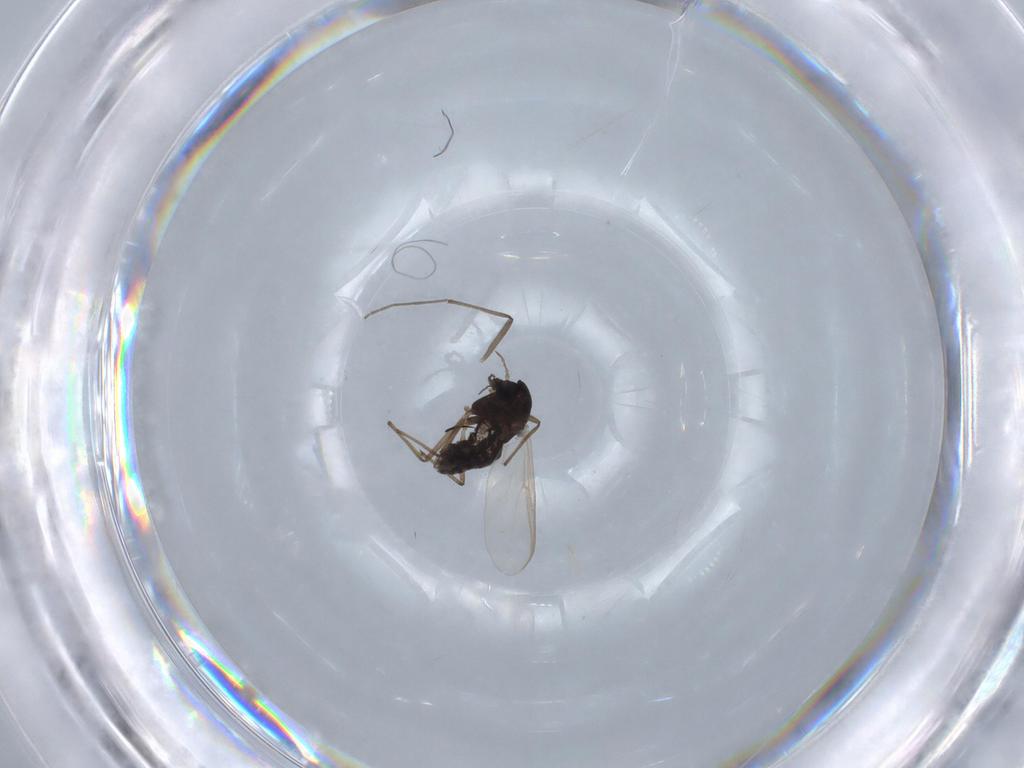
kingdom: Animalia
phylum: Arthropoda
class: Insecta
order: Diptera
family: Chironomidae
